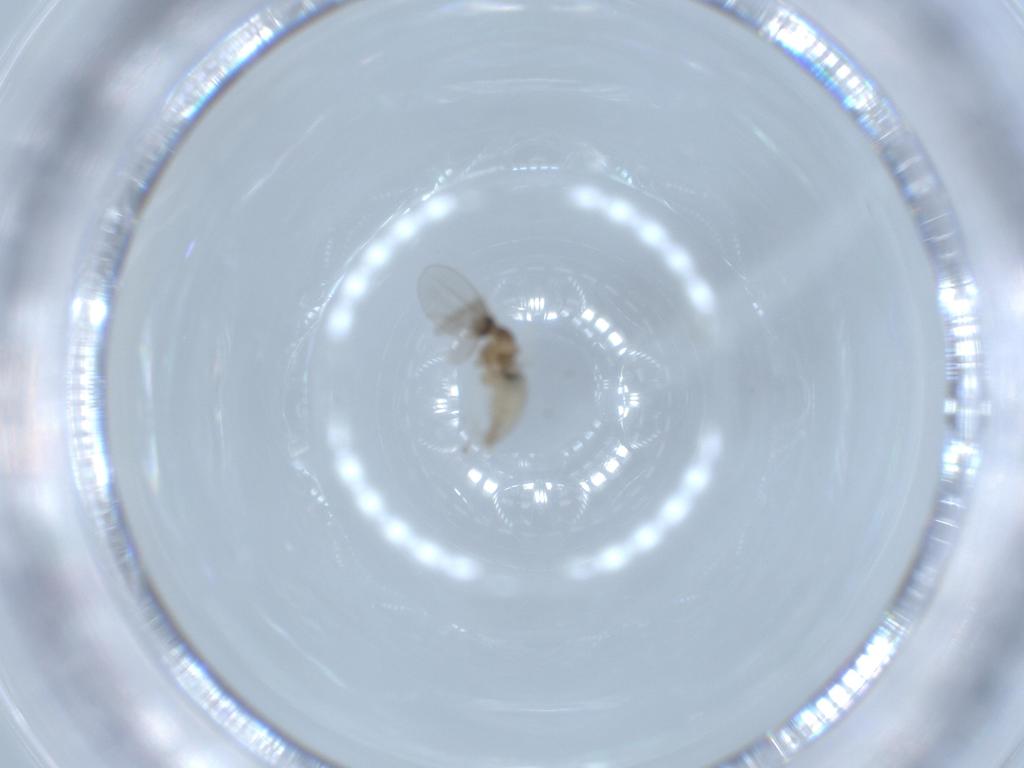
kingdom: Animalia
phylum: Arthropoda
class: Insecta
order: Diptera
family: Cecidomyiidae
